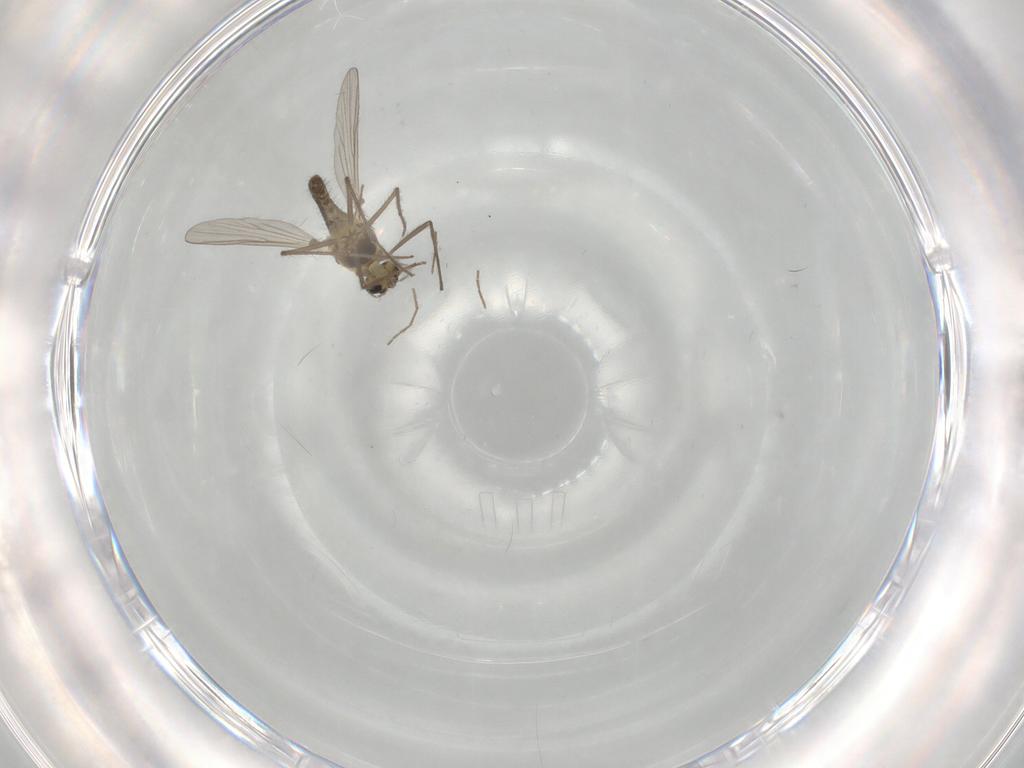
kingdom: Animalia
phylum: Arthropoda
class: Insecta
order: Diptera
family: Chironomidae
